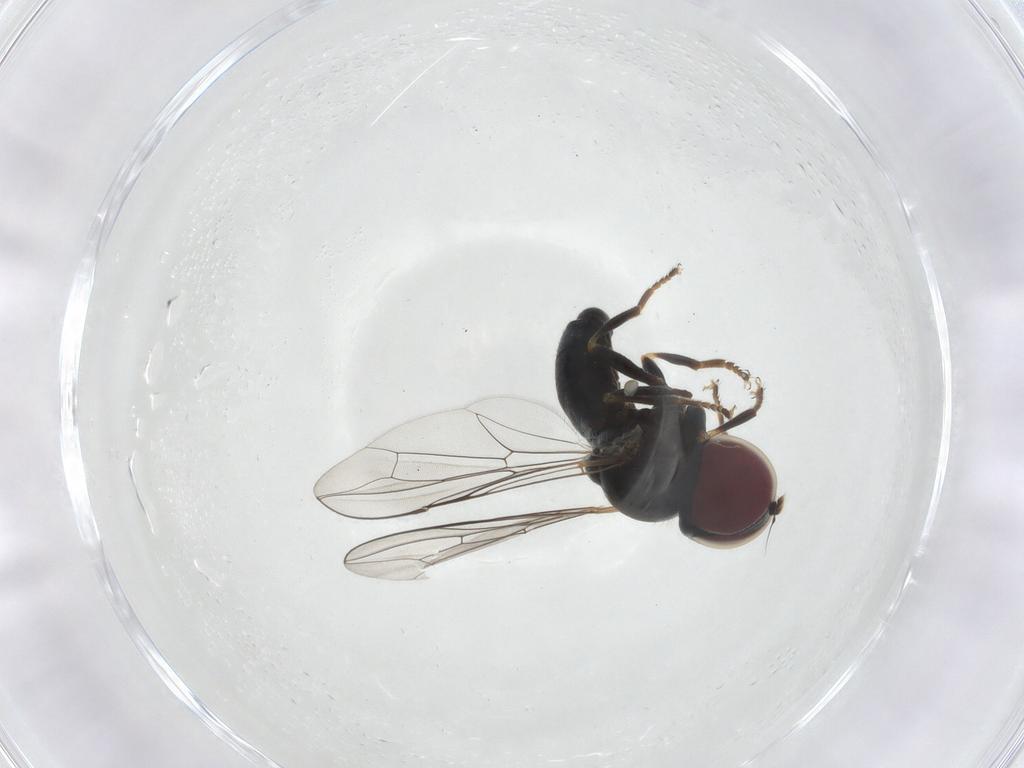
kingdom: Animalia
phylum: Arthropoda
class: Insecta
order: Diptera
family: Pipunculidae
